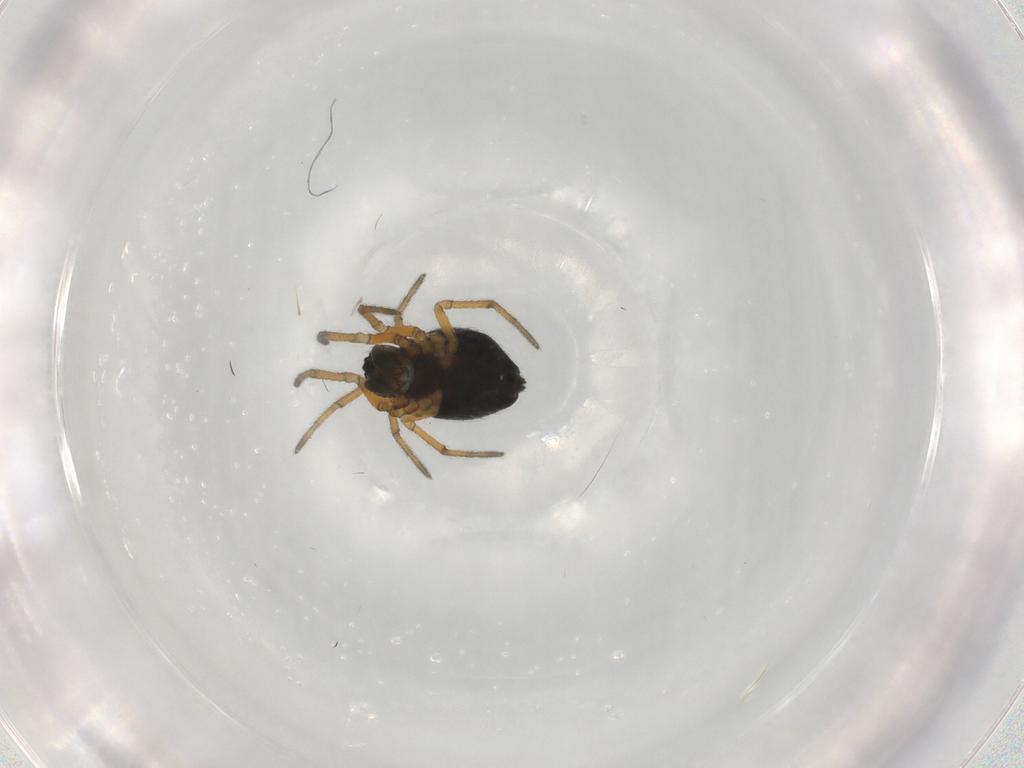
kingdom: Animalia
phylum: Arthropoda
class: Arachnida
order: Araneae
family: Linyphiidae
